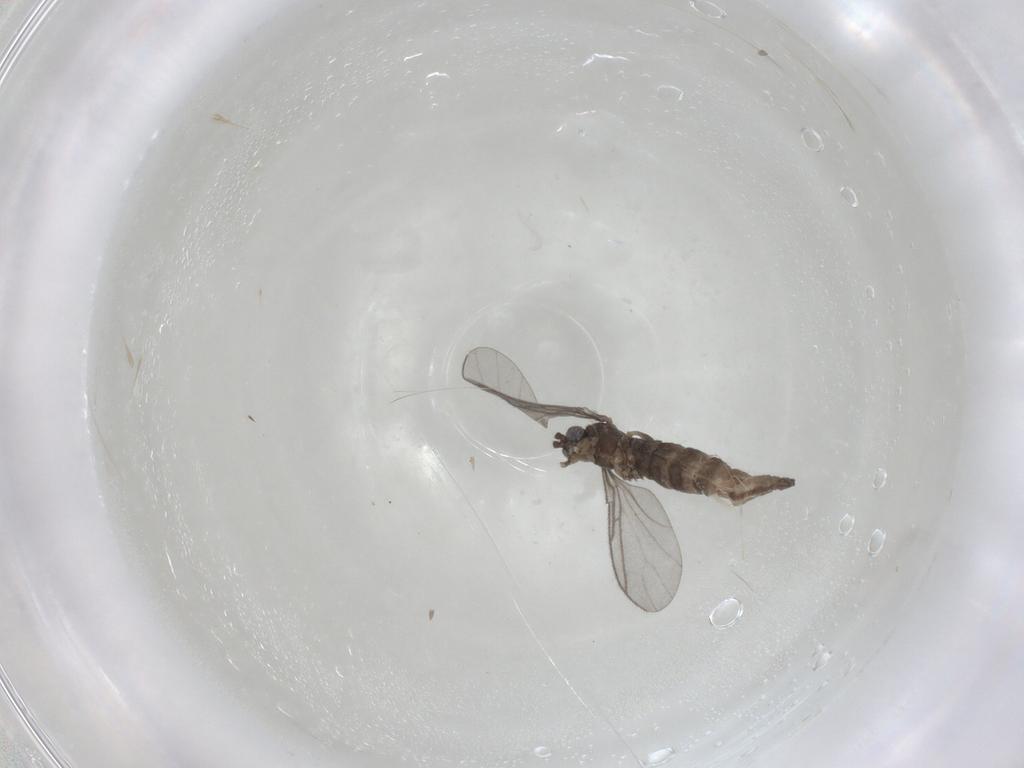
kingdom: Animalia
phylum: Arthropoda
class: Insecta
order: Diptera
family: Sciaridae
